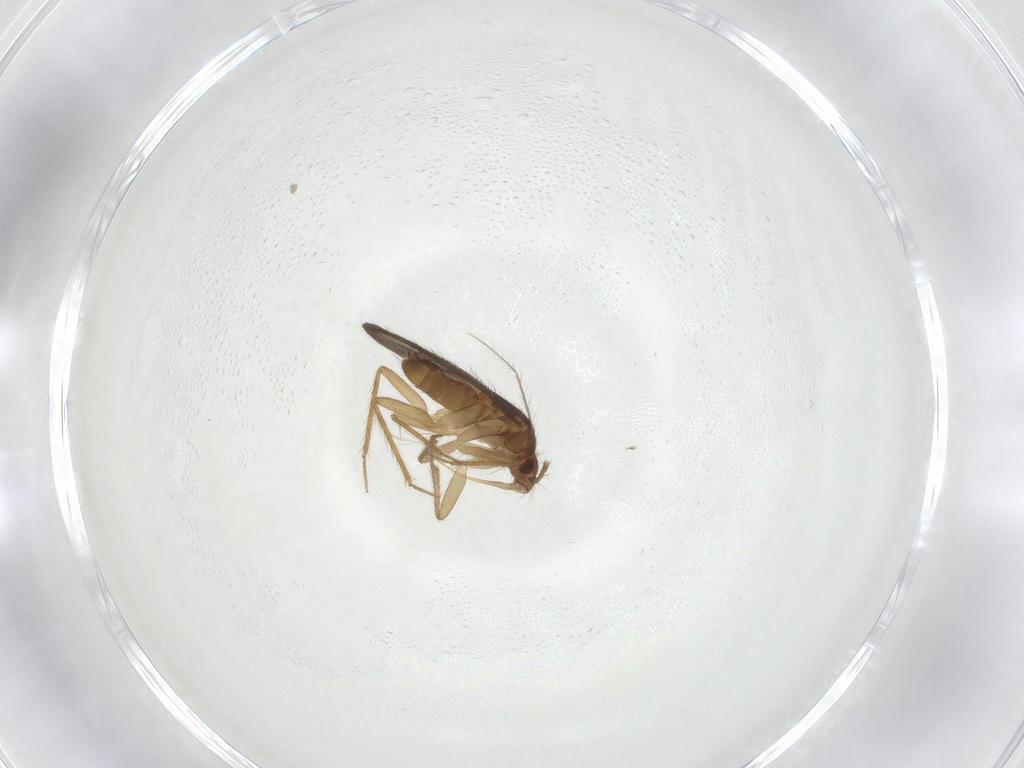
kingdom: Animalia
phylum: Arthropoda
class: Insecta
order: Hemiptera
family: Ceratocombidae
